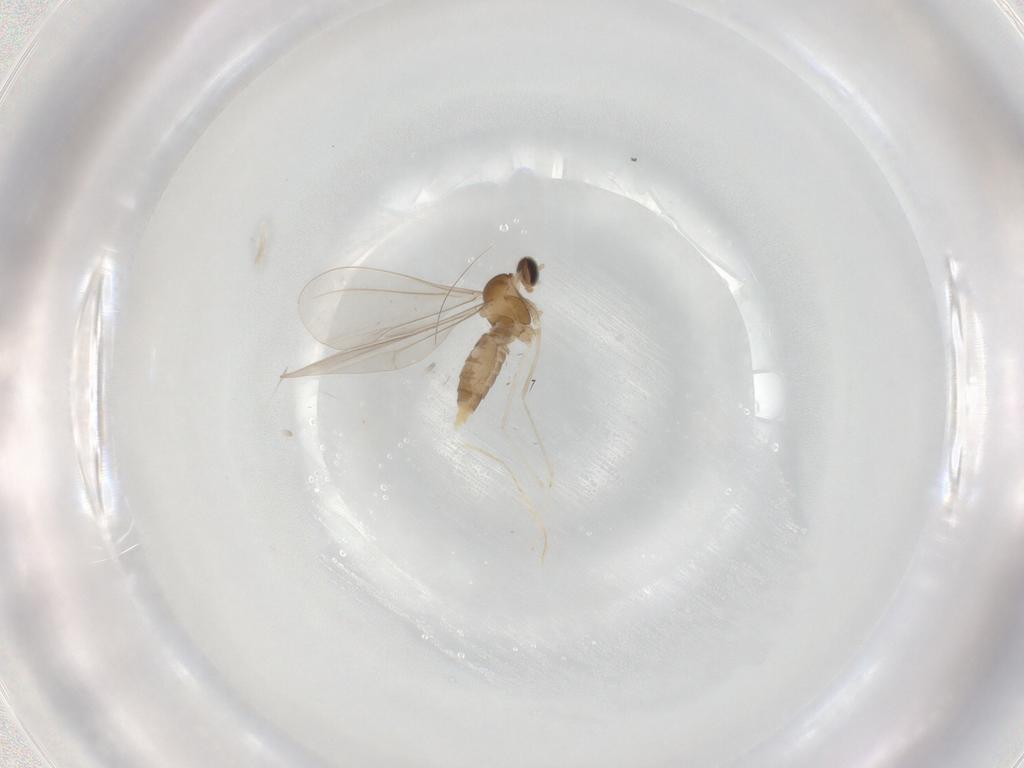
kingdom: Animalia
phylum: Arthropoda
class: Insecta
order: Diptera
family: Cecidomyiidae
